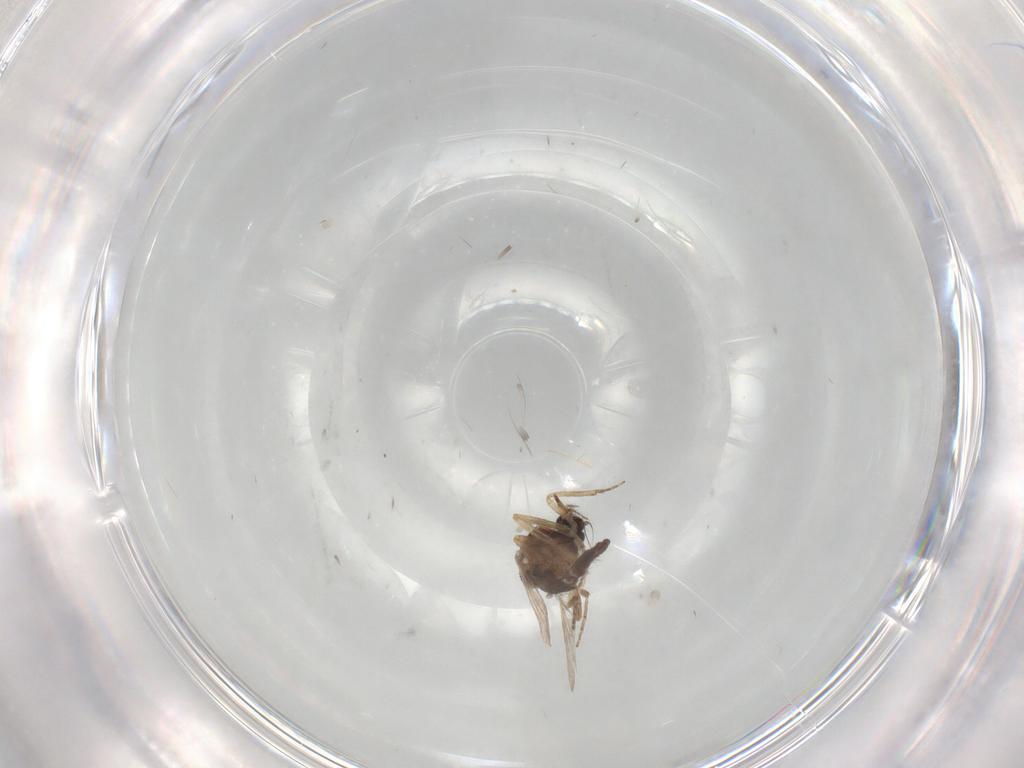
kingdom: Animalia
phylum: Arthropoda
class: Insecta
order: Diptera
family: Ceratopogonidae
